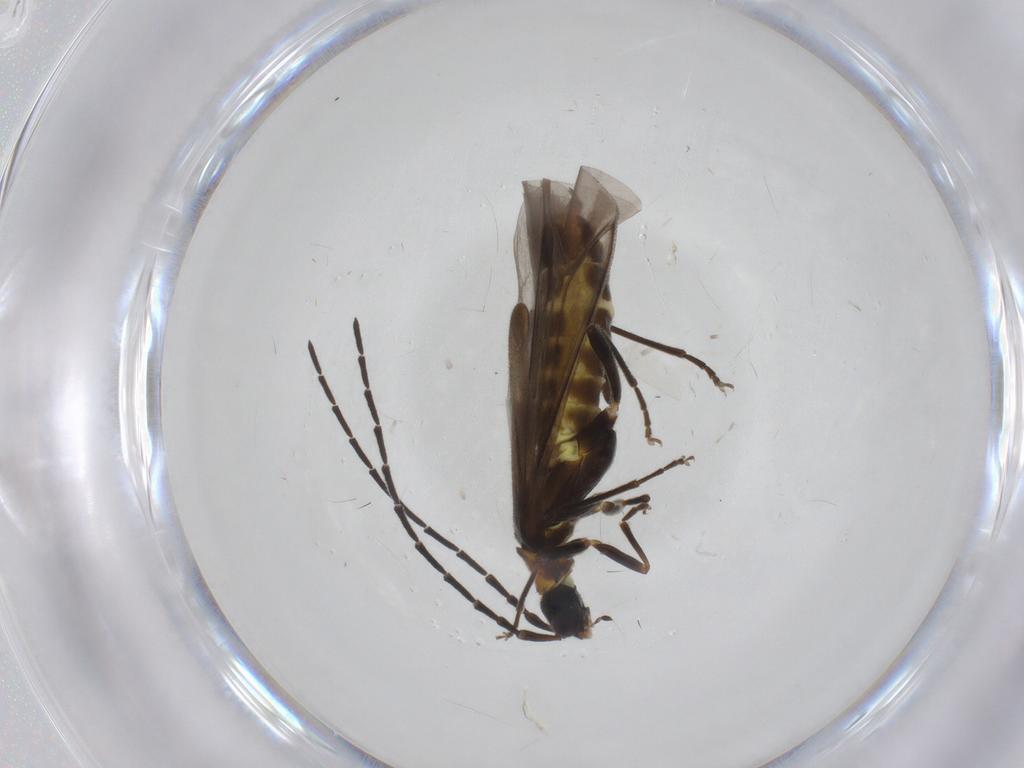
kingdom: Animalia
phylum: Arthropoda
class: Insecta
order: Coleoptera
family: Cantharidae
